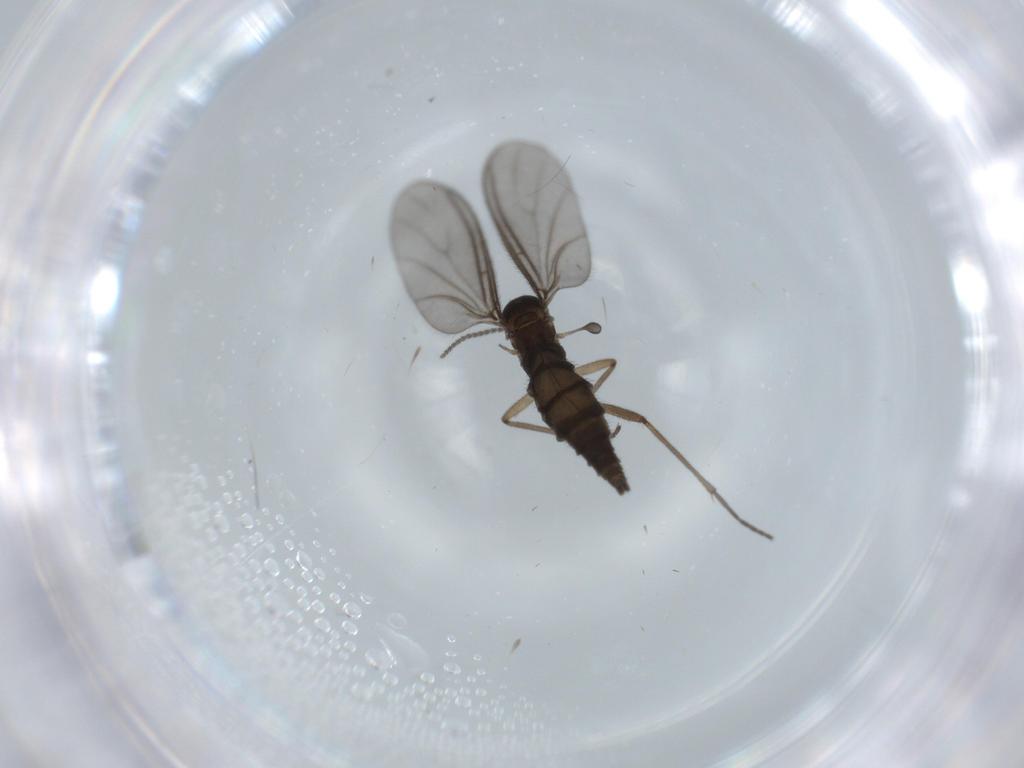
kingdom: Animalia
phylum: Arthropoda
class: Insecta
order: Diptera
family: Sciaridae
